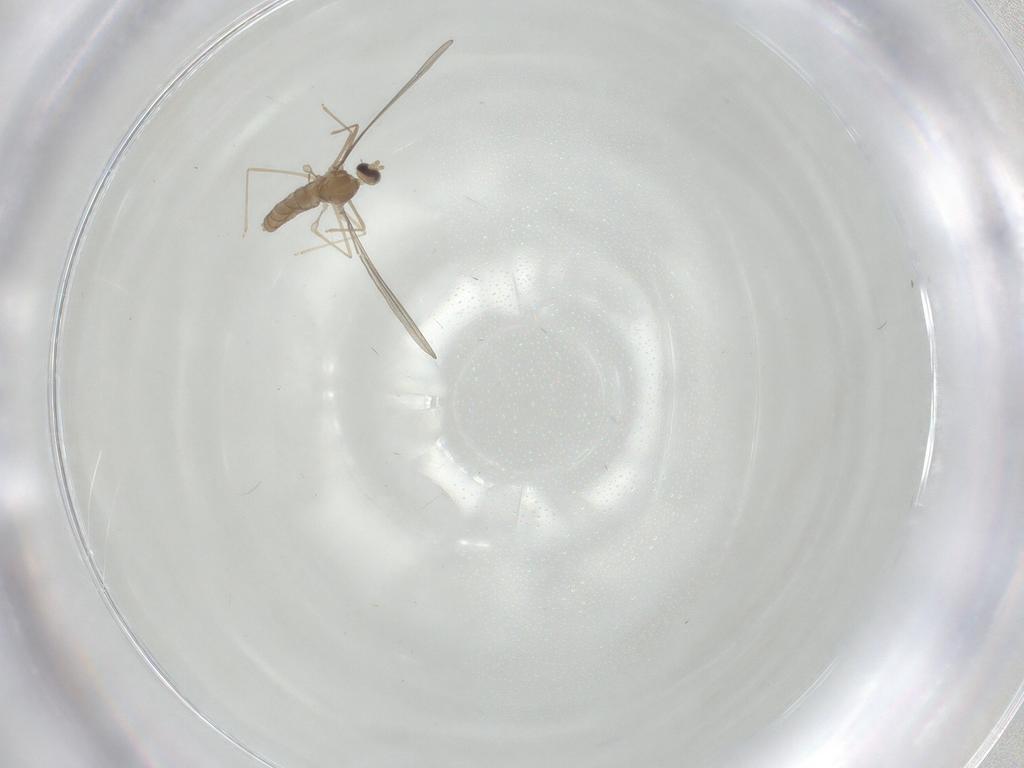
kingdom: Animalia
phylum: Arthropoda
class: Insecta
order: Diptera
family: Cecidomyiidae
